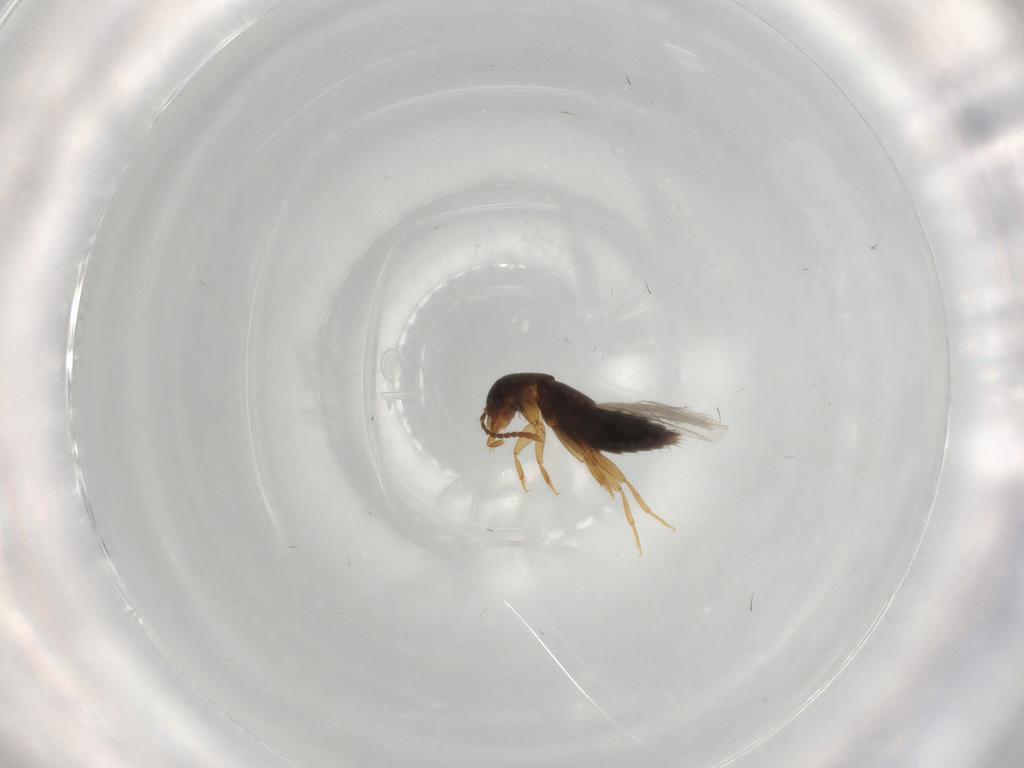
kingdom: Animalia
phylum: Arthropoda
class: Insecta
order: Coleoptera
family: Staphylinidae
